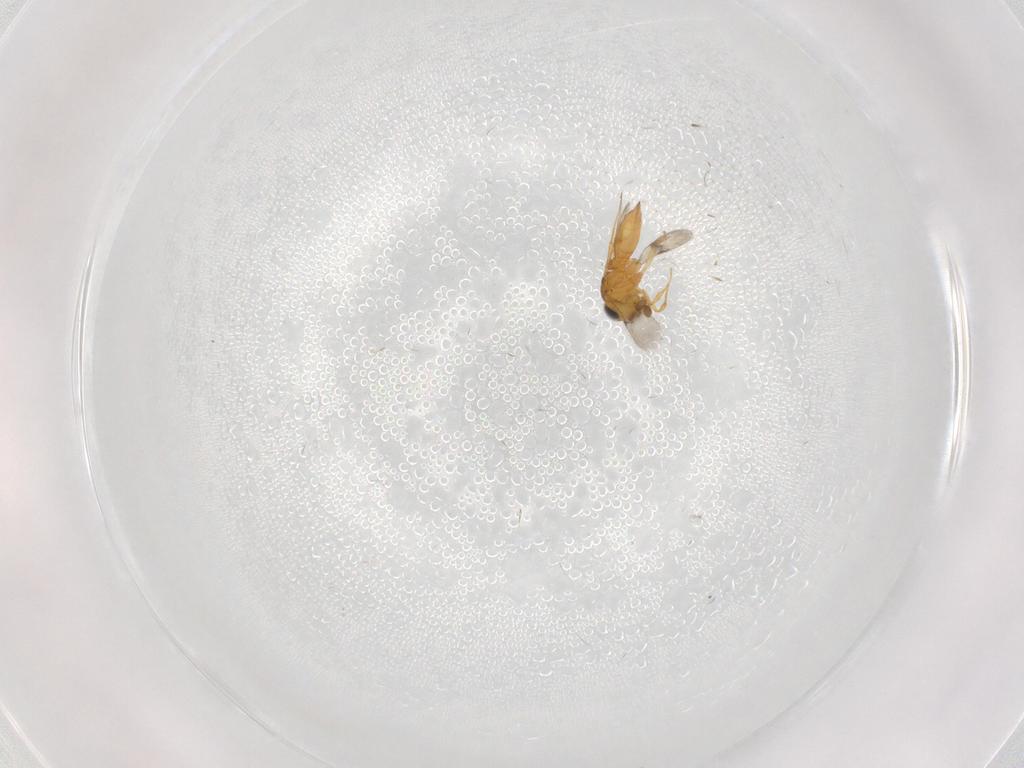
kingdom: Animalia
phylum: Arthropoda
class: Insecta
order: Hymenoptera
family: Scelionidae
